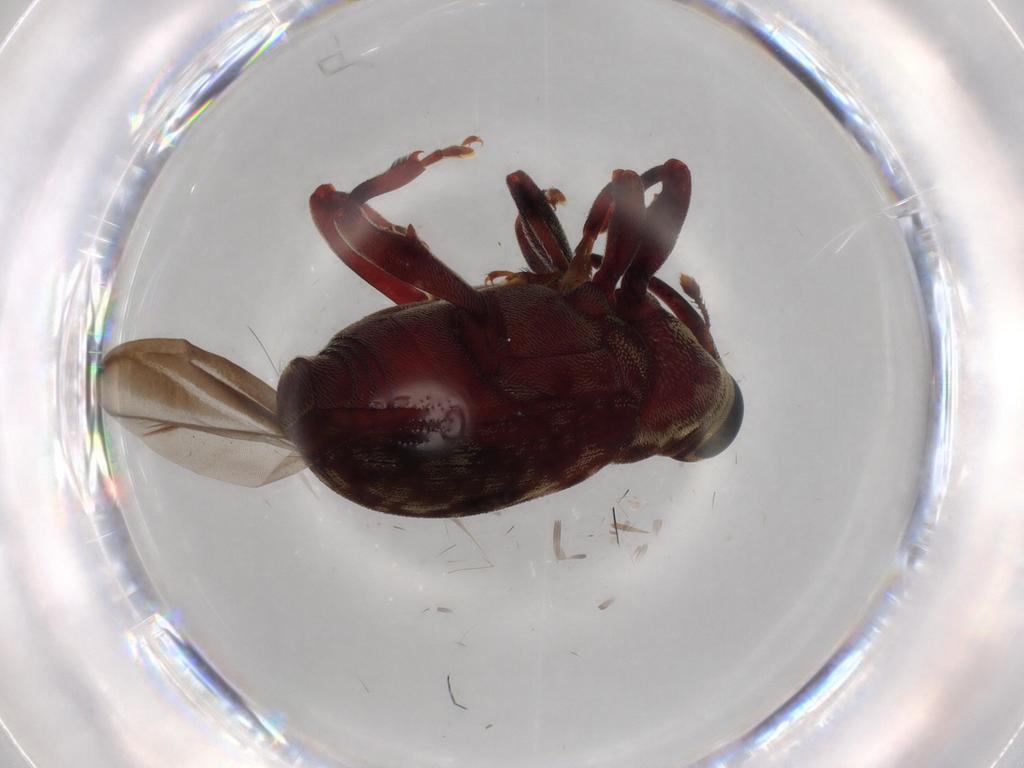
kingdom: Animalia
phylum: Arthropoda
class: Insecta
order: Coleoptera
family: Curculionidae
